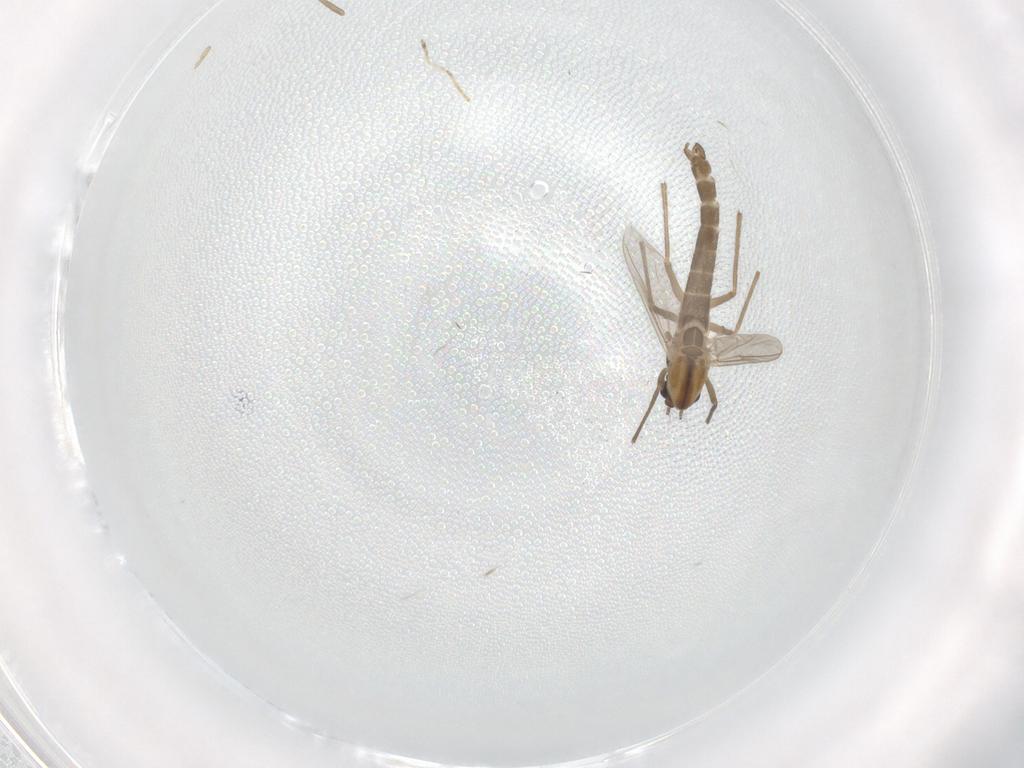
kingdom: Animalia
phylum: Arthropoda
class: Insecta
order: Diptera
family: Chironomidae
